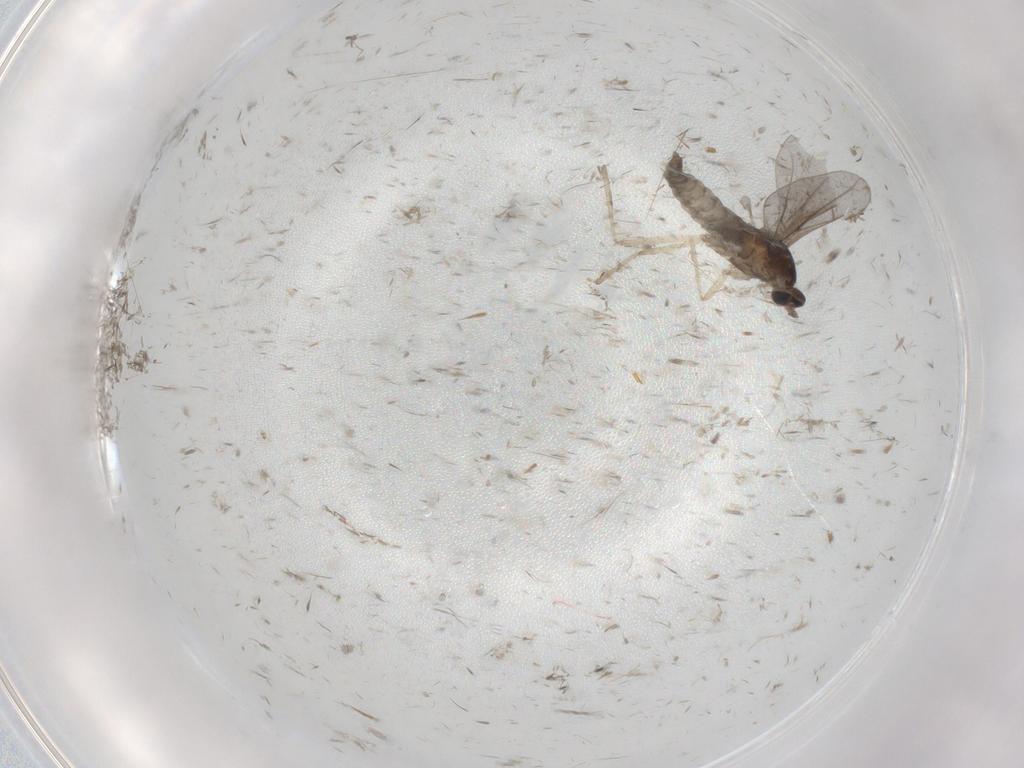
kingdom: Animalia
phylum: Arthropoda
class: Insecta
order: Diptera
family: Cecidomyiidae
